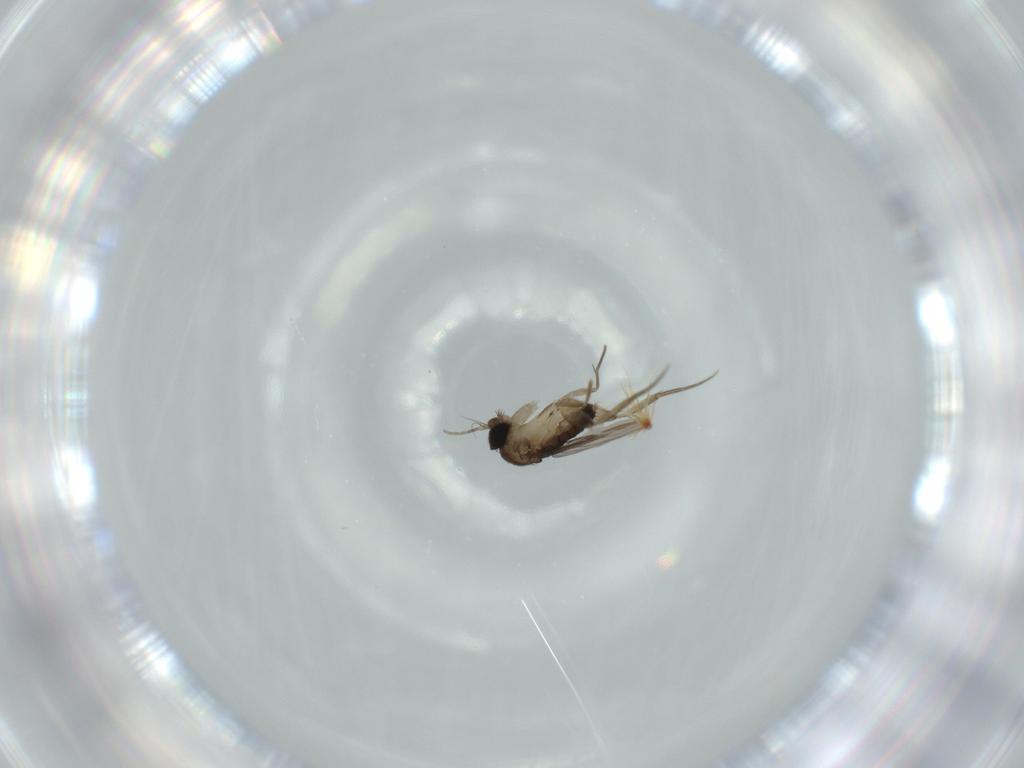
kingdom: Animalia
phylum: Arthropoda
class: Insecta
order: Diptera
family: Phoridae
